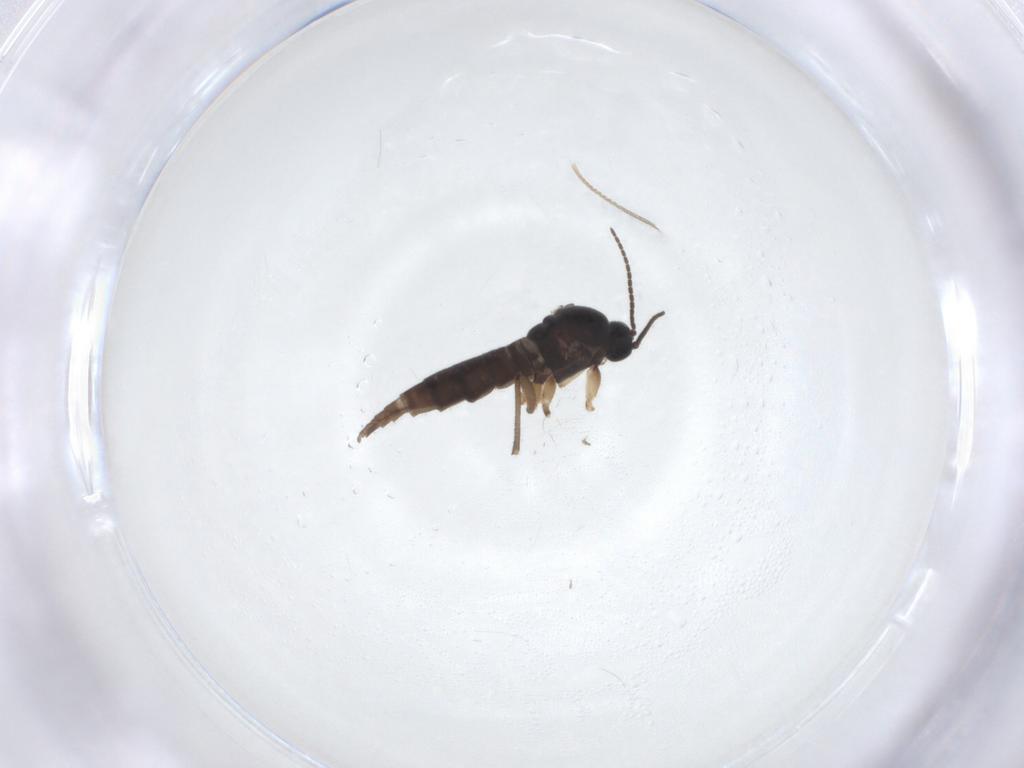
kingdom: Animalia
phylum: Arthropoda
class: Insecta
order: Diptera
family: Sciaridae
